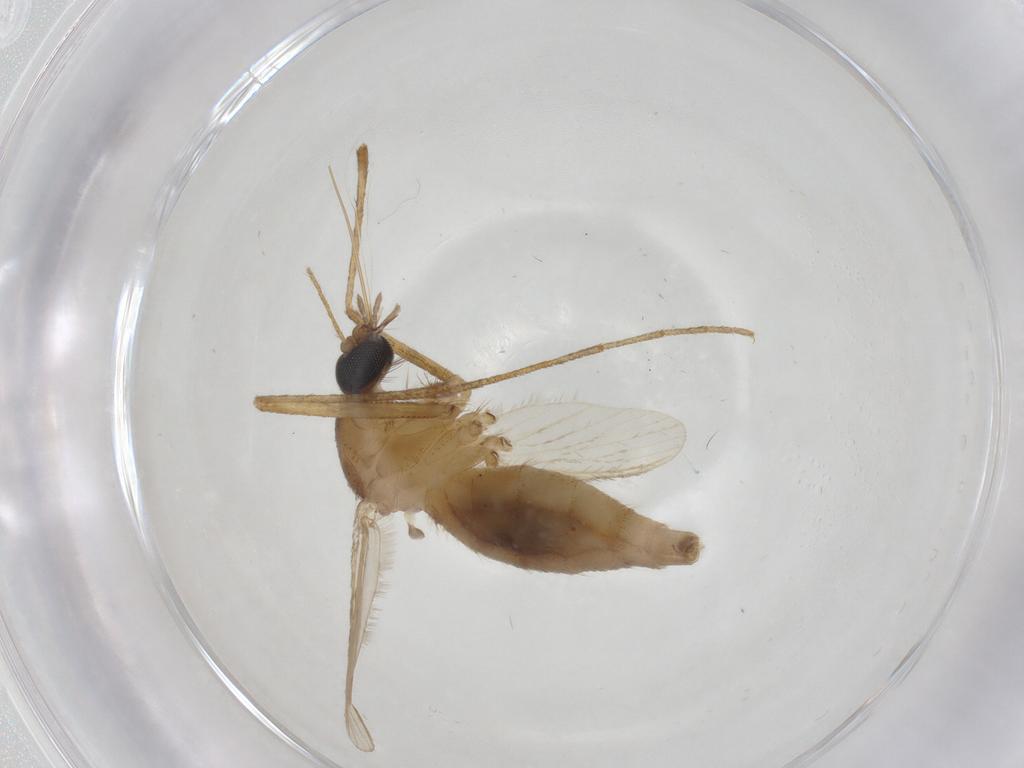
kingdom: Animalia
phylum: Arthropoda
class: Insecta
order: Diptera
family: Culicidae
